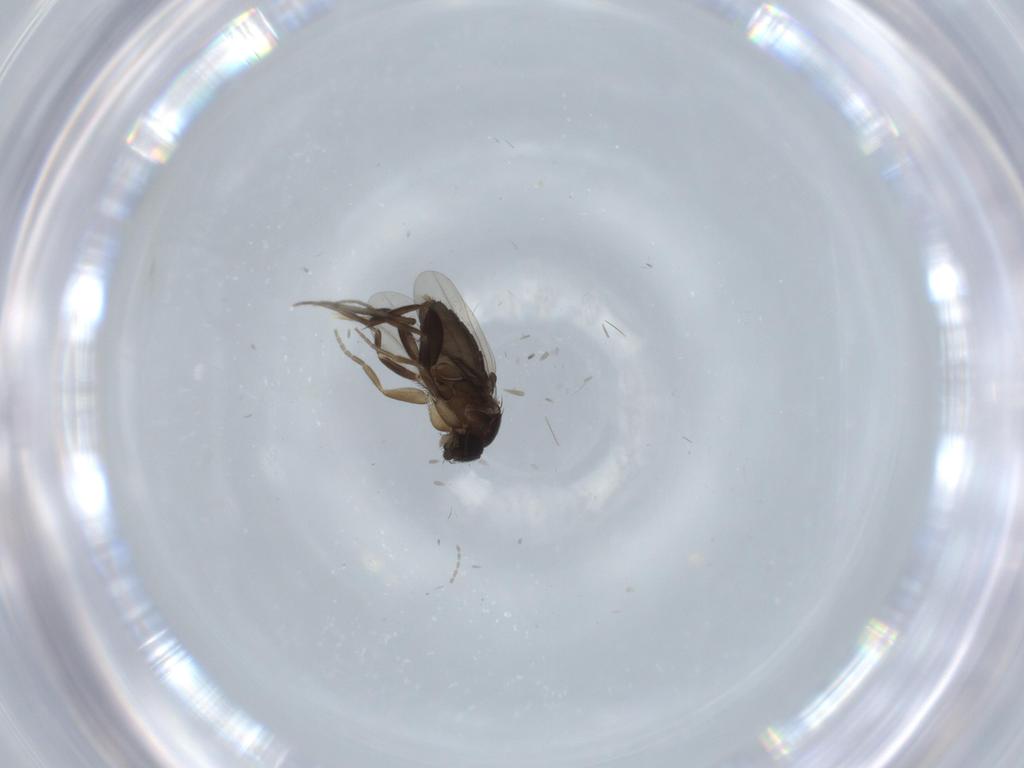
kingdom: Animalia
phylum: Arthropoda
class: Insecta
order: Diptera
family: Phoridae
